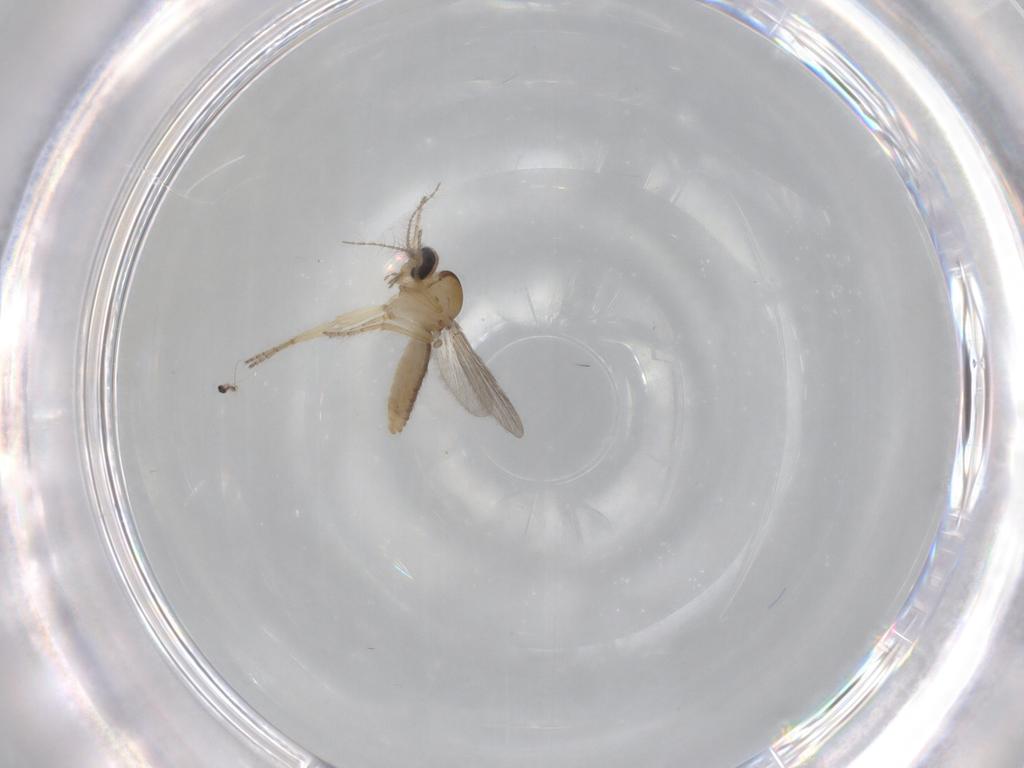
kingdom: Animalia
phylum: Arthropoda
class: Insecta
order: Diptera
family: Ceratopogonidae
